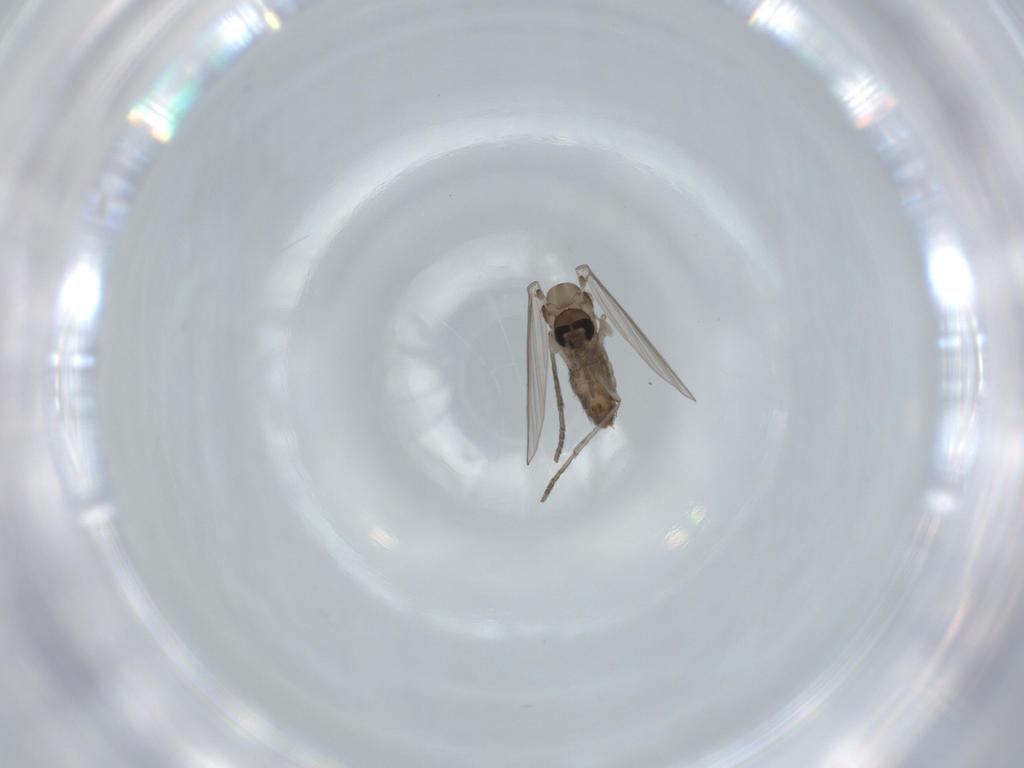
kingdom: Animalia
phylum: Arthropoda
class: Insecta
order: Diptera
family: Psychodidae
